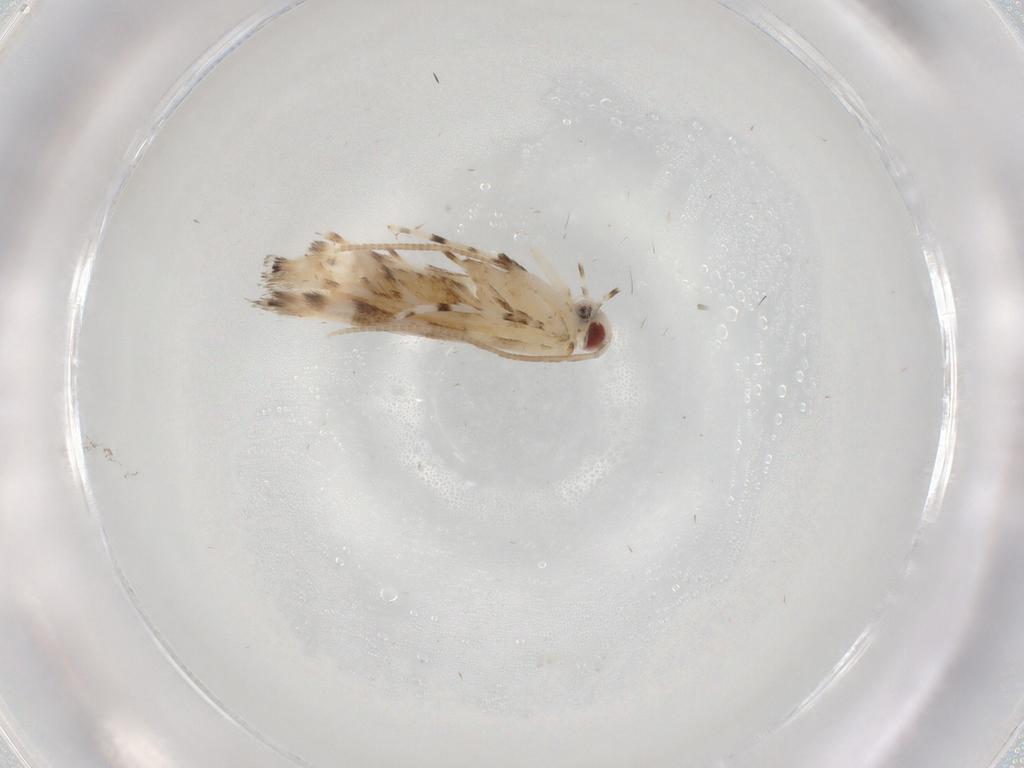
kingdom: Animalia
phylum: Arthropoda
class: Insecta
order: Lepidoptera
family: Gracillariidae
